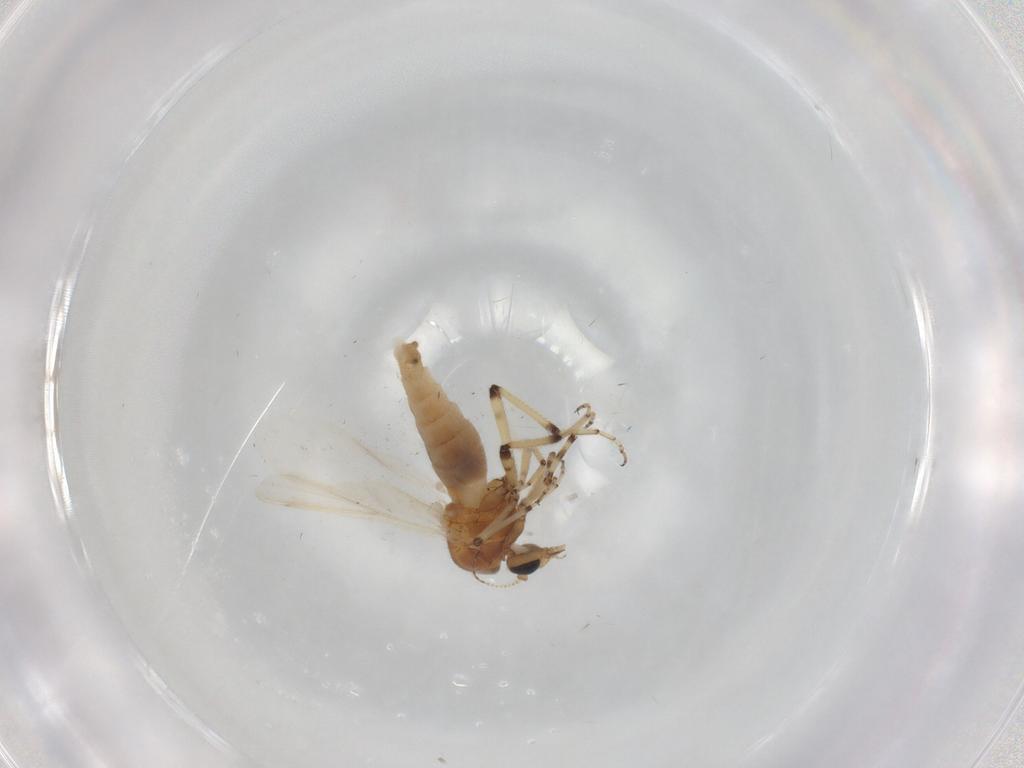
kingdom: Animalia
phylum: Arthropoda
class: Insecta
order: Diptera
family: Ceratopogonidae
